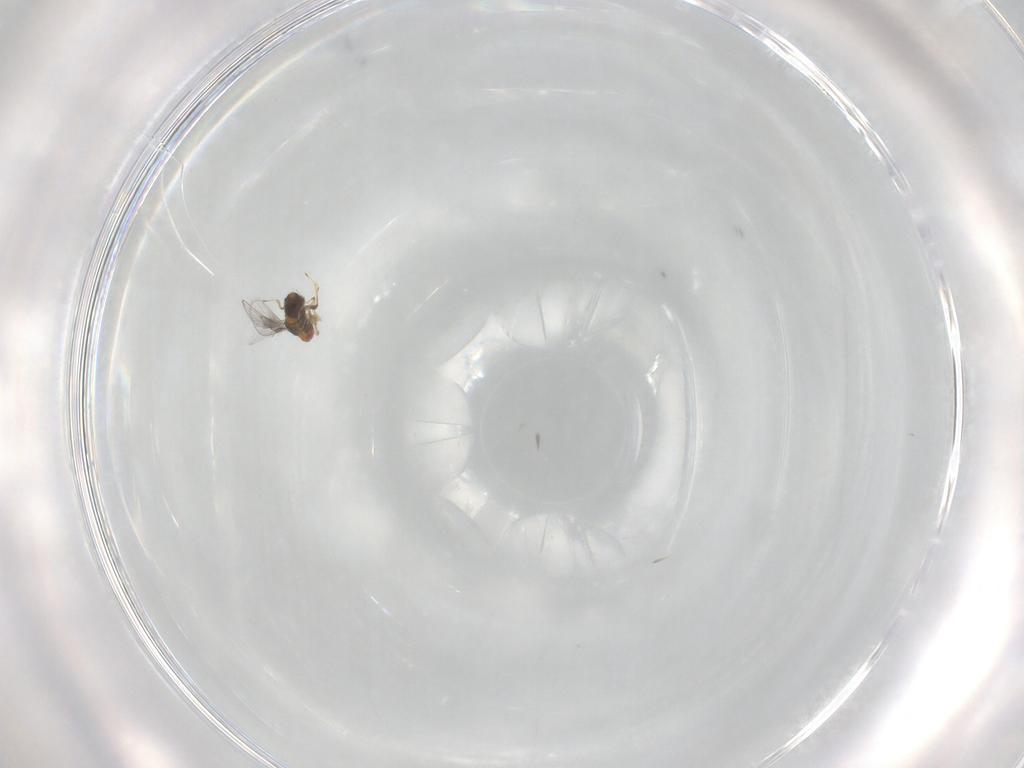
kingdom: Animalia
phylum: Arthropoda
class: Insecta
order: Hymenoptera
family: Trichogrammatidae
